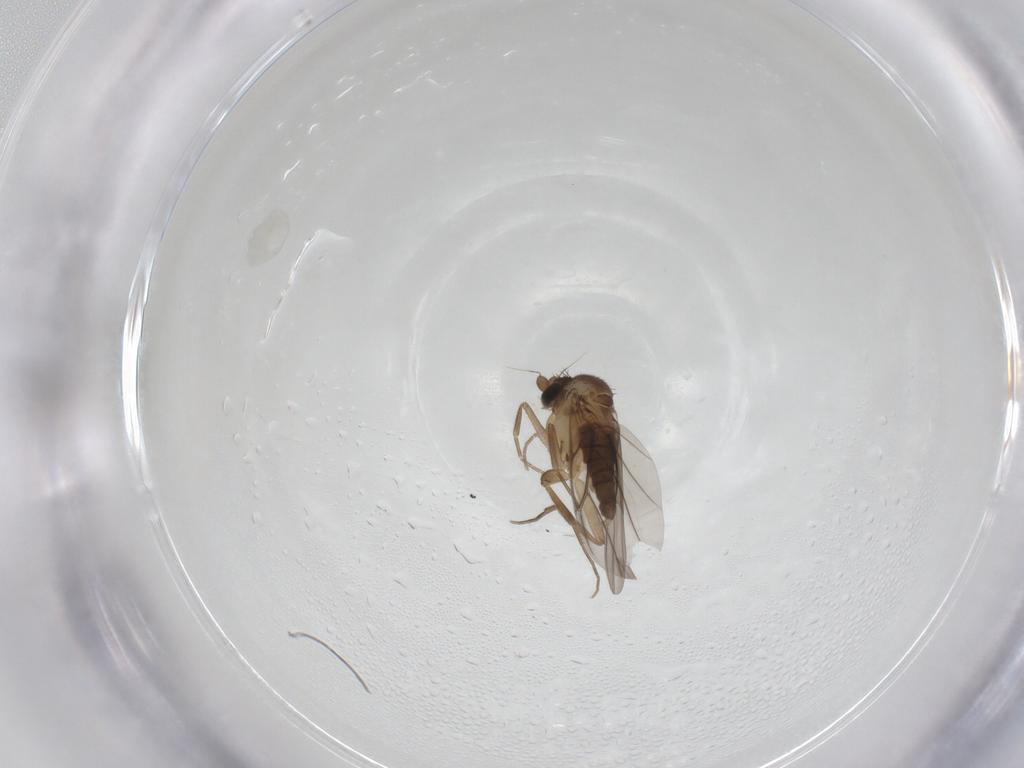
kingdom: Animalia
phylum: Arthropoda
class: Insecta
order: Diptera
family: Phoridae
